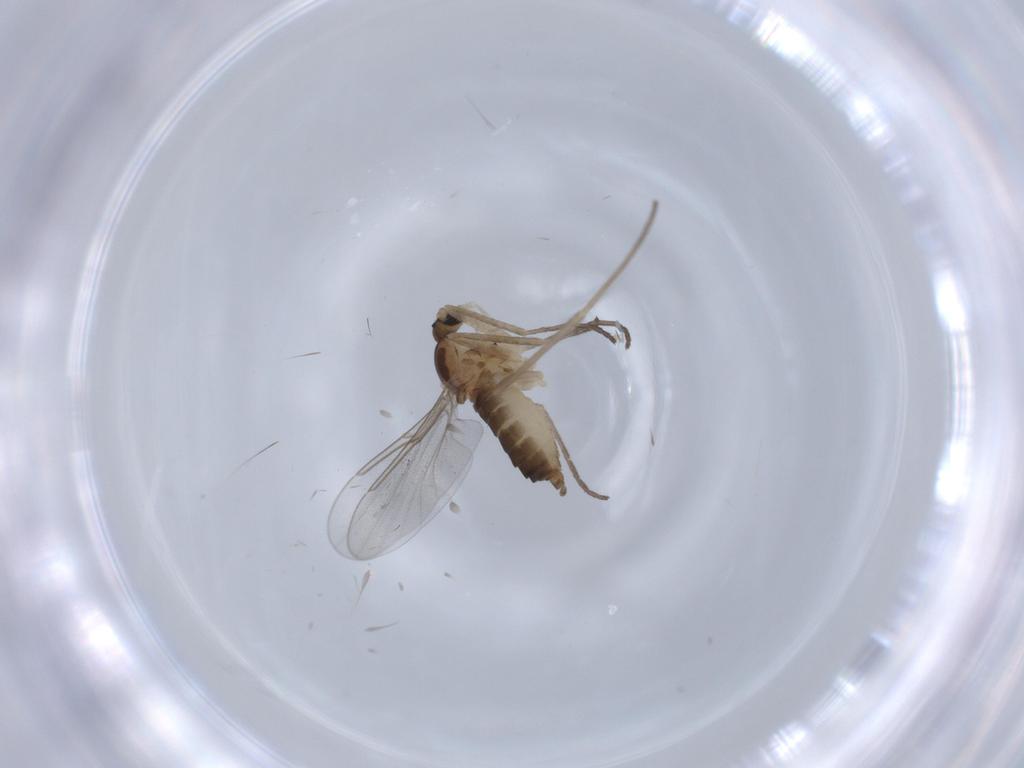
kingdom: Animalia
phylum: Arthropoda
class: Insecta
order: Diptera
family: Cecidomyiidae
